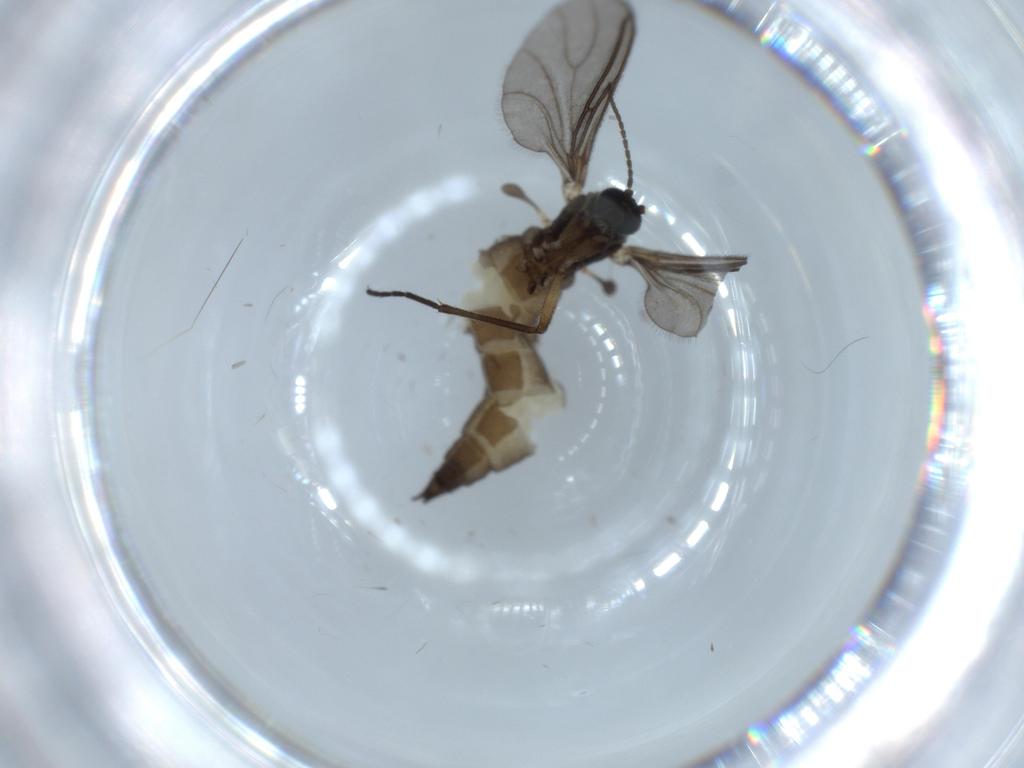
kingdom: Animalia
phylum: Arthropoda
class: Insecta
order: Diptera
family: Sciaridae
